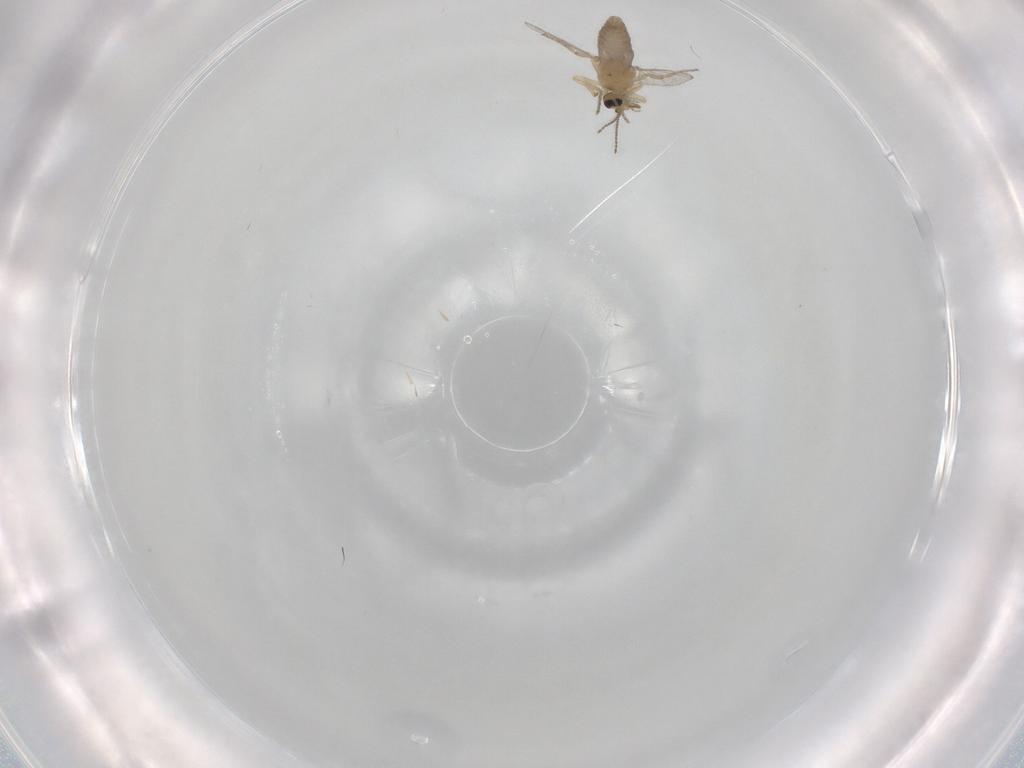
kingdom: Animalia
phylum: Arthropoda
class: Insecta
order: Diptera
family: Ceratopogonidae
